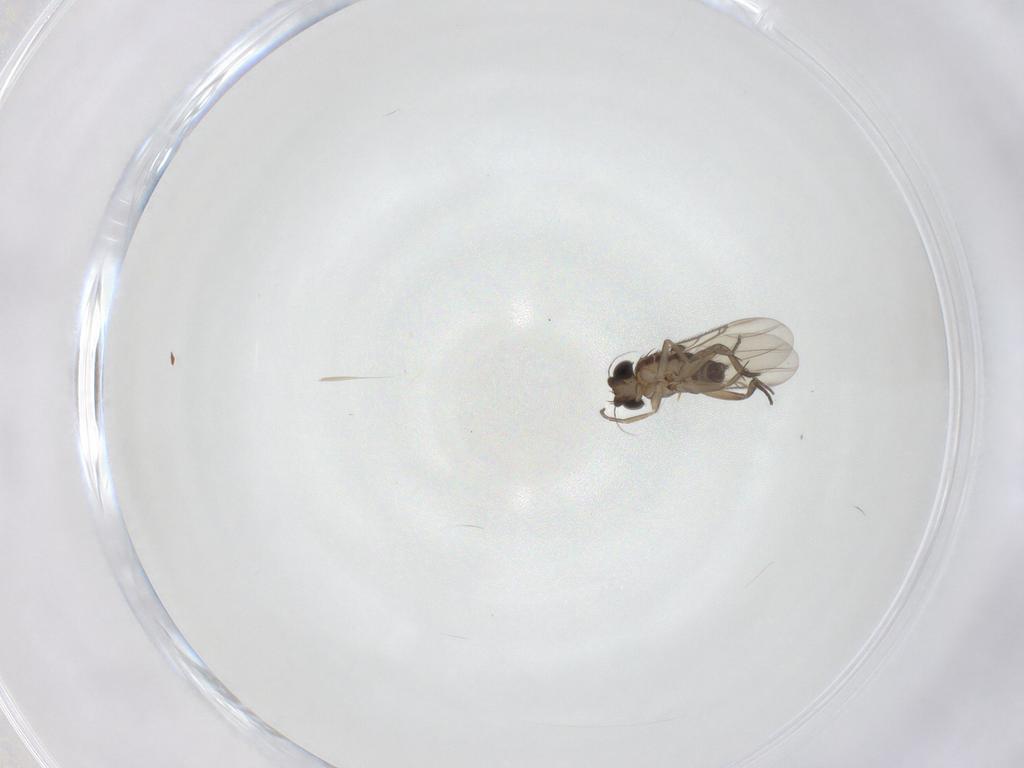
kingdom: Animalia
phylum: Arthropoda
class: Insecta
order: Diptera
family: Phoridae
